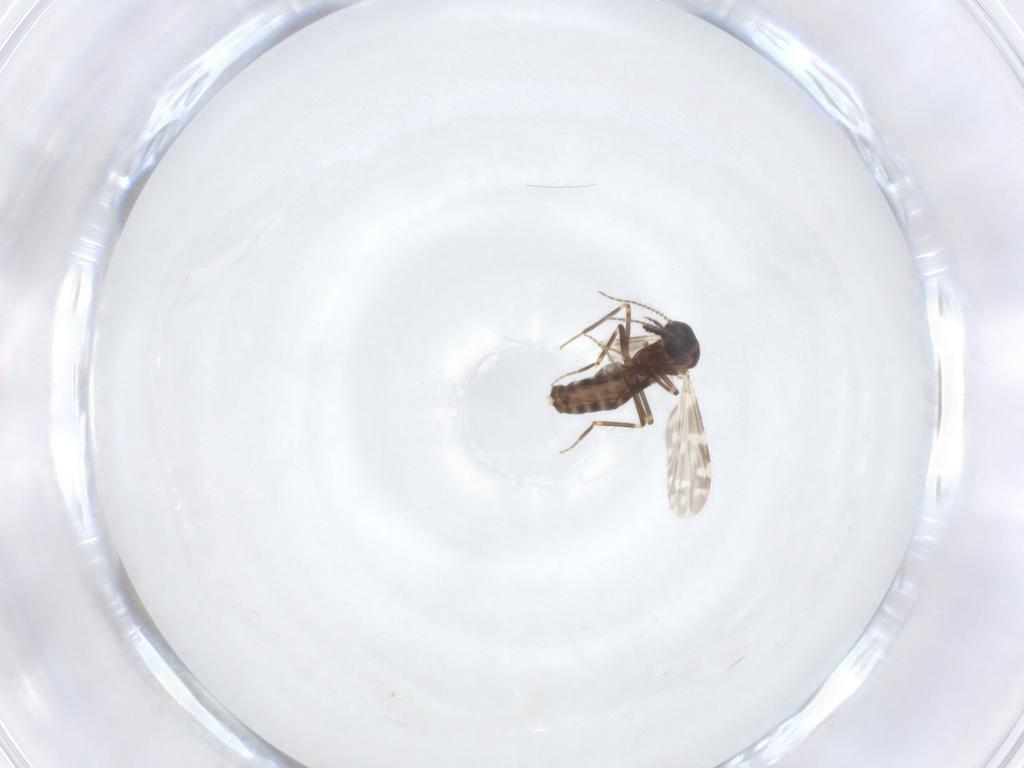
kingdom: Animalia
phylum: Arthropoda
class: Insecta
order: Diptera
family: Ceratopogonidae
